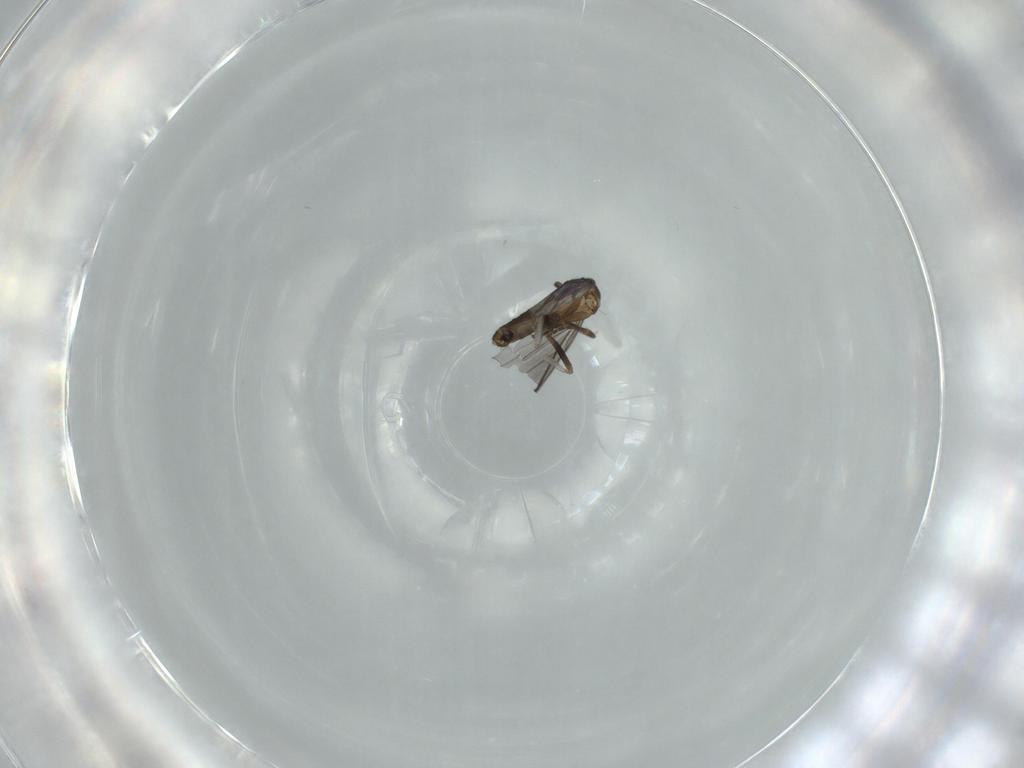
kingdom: Animalia
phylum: Arthropoda
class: Insecta
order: Diptera
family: Phoridae
